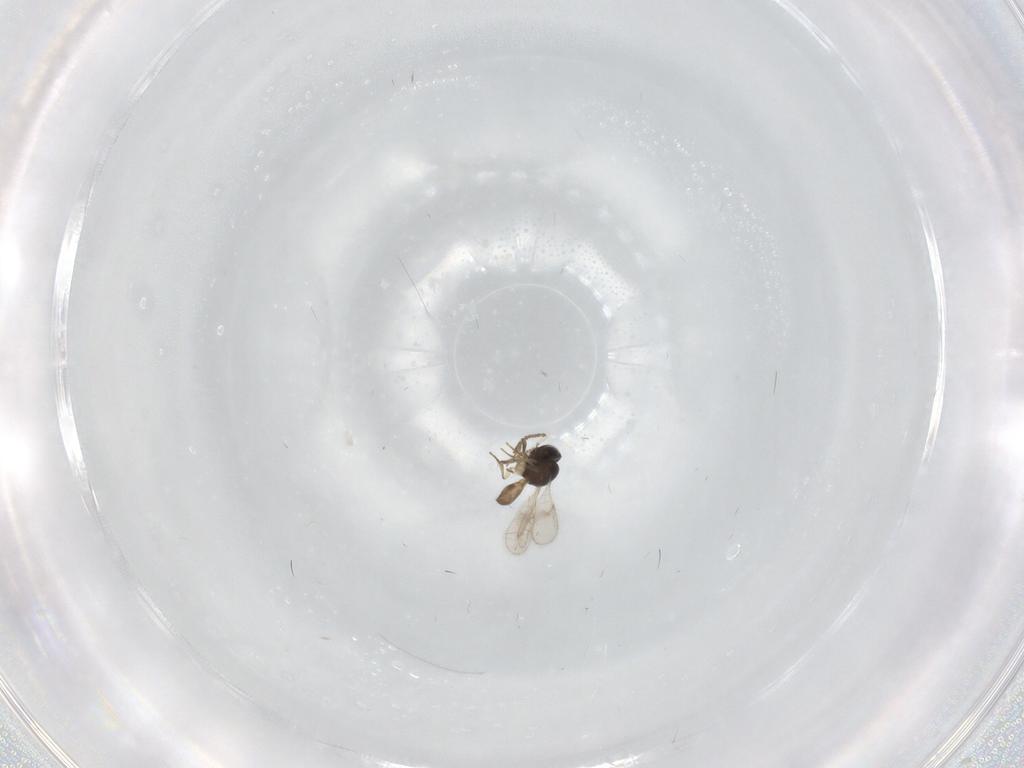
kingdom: Animalia
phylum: Arthropoda
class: Insecta
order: Hymenoptera
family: Scelionidae
